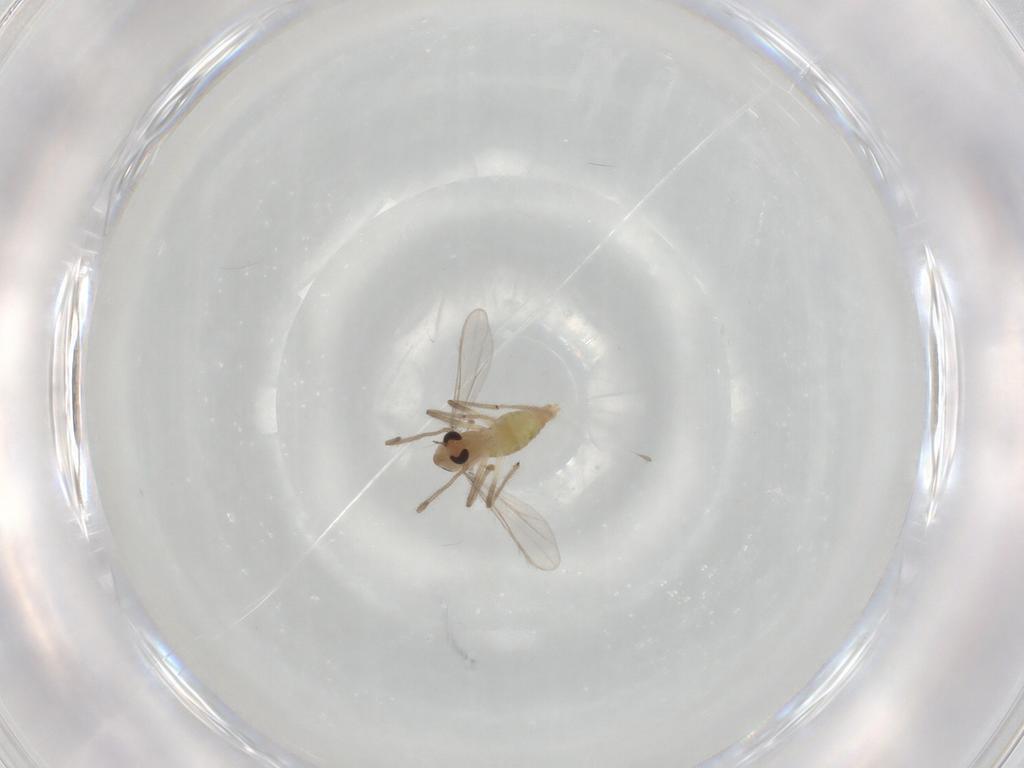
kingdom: Animalia
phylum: Arthropoda
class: Insecta
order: Diptera
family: Chironomidae
